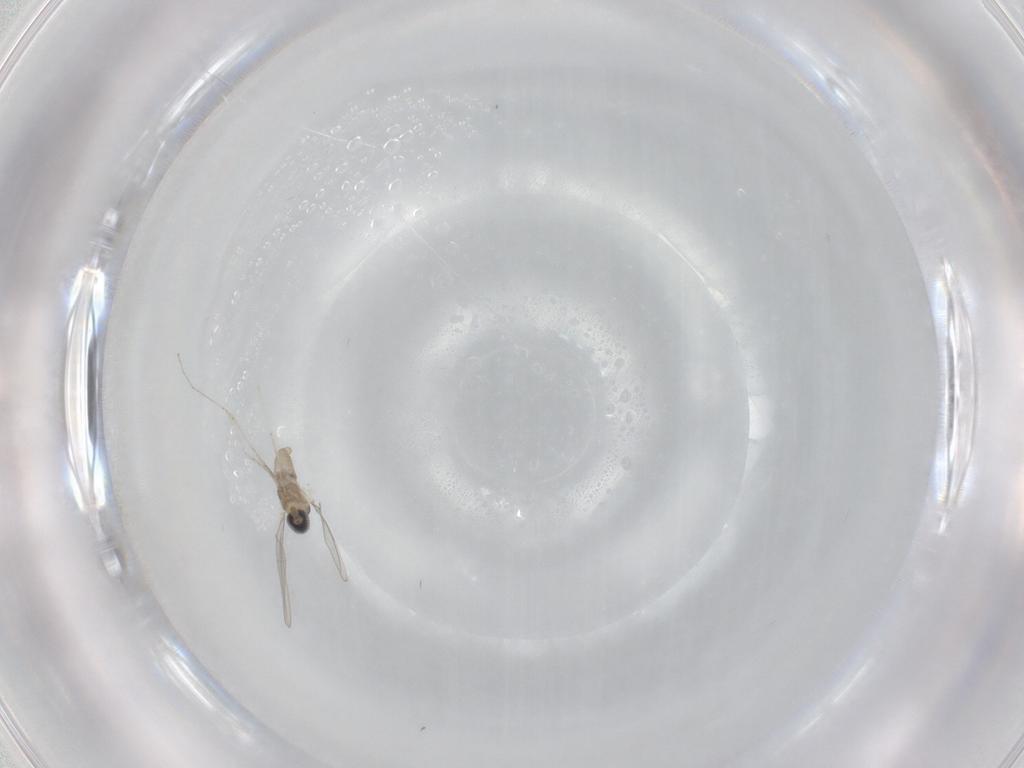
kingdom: Animalia
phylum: Arthropoda
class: Insecta
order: Diptera
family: Cecidomyiidae
